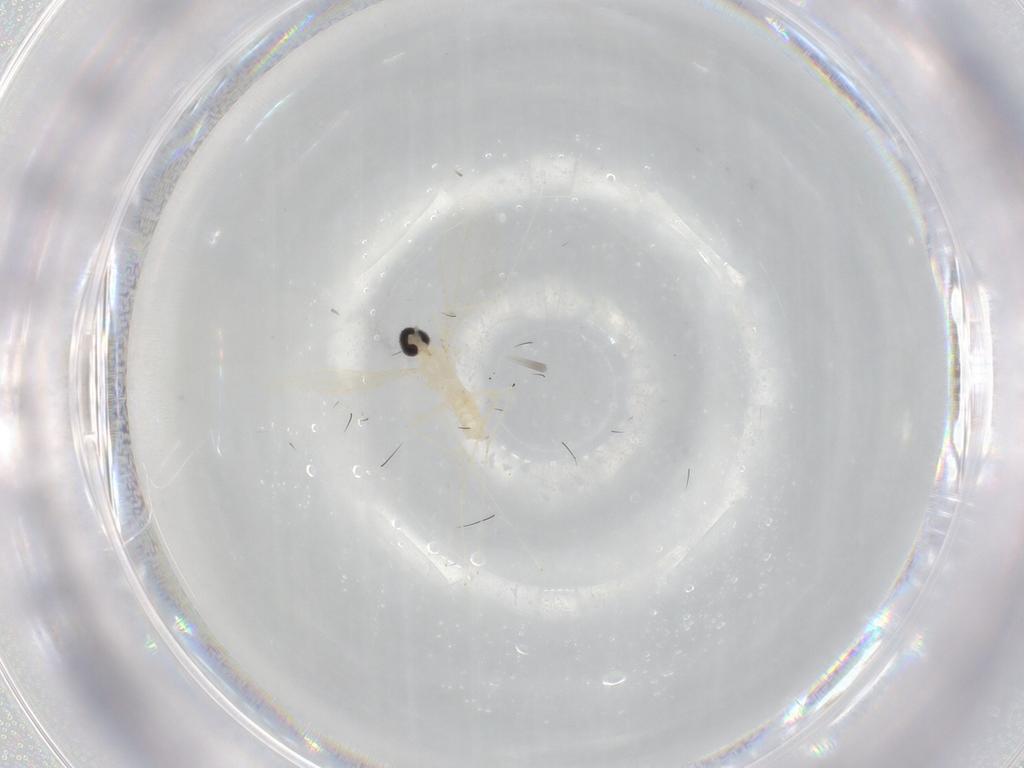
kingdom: Animalia
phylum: Arthropoda
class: Insecta
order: Diptera
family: Cecidomyiidae
